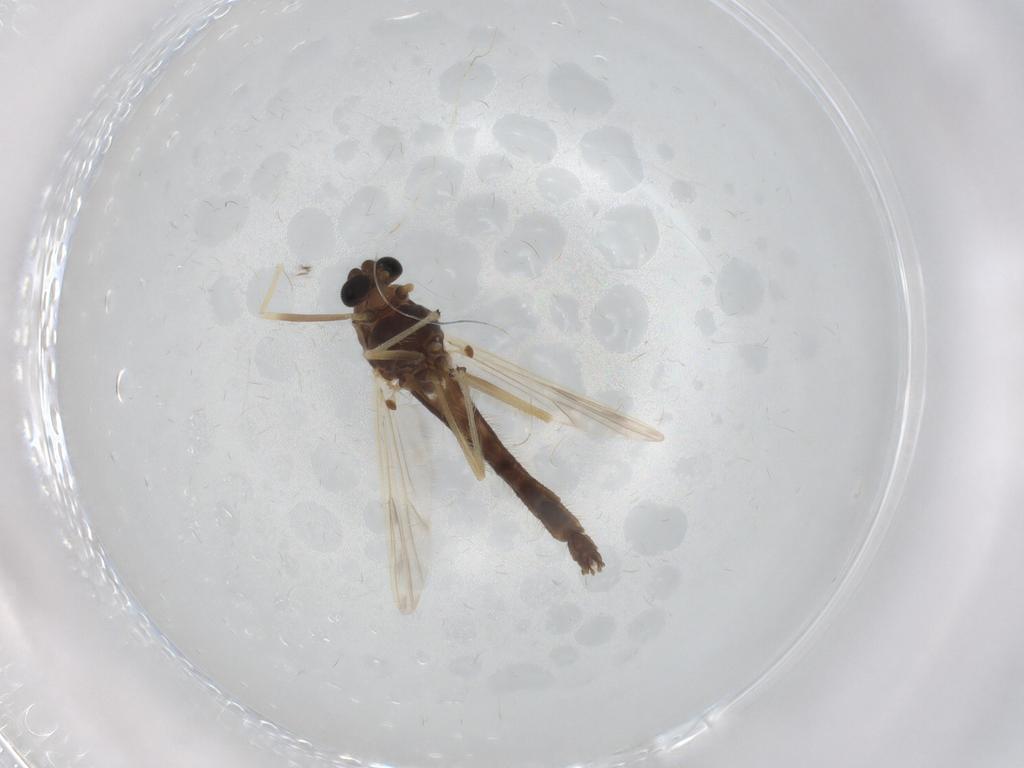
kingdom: Animalia
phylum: Arthropoda
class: Insecta
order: Diptera
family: Chironomidae
